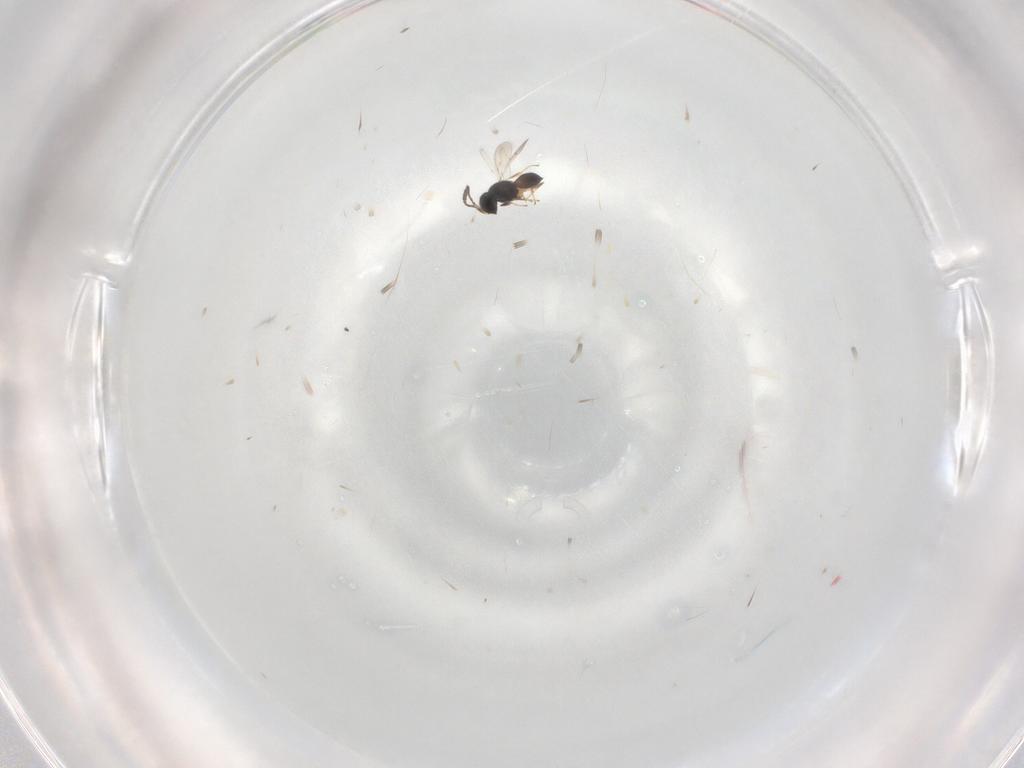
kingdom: Animalia
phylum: Arthropoda
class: Insecta
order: Hymenoptera
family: Scelionidae
